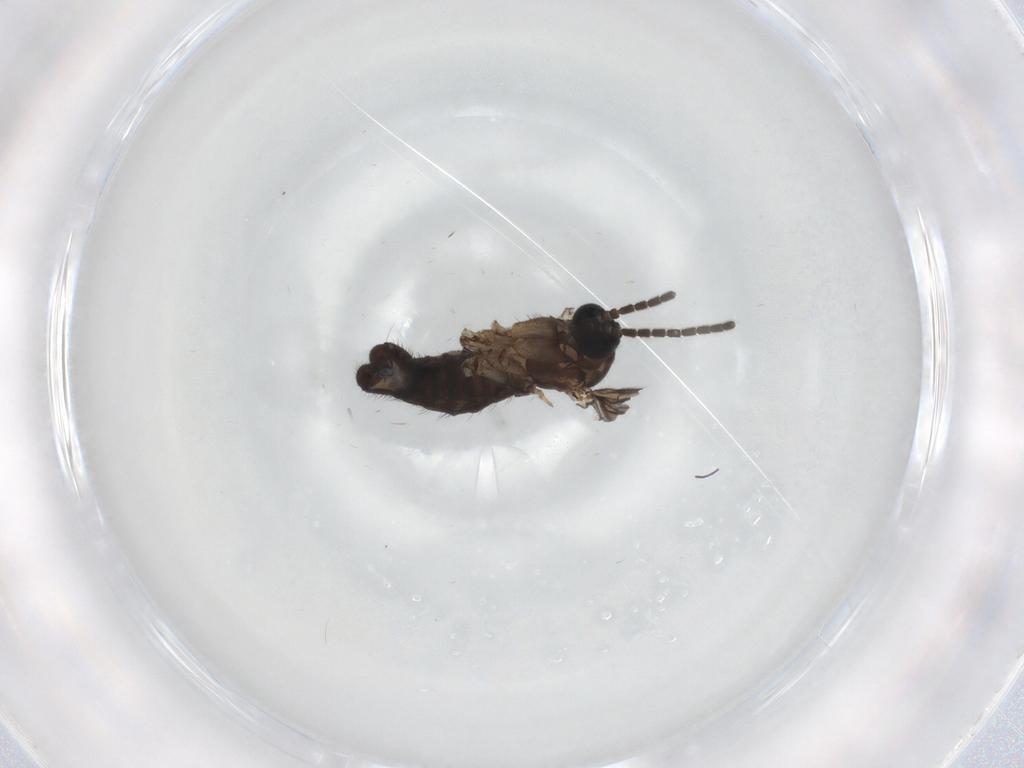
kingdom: Animalia
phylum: Arthropoda
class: Insecta
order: Diptera
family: Sciaridae
